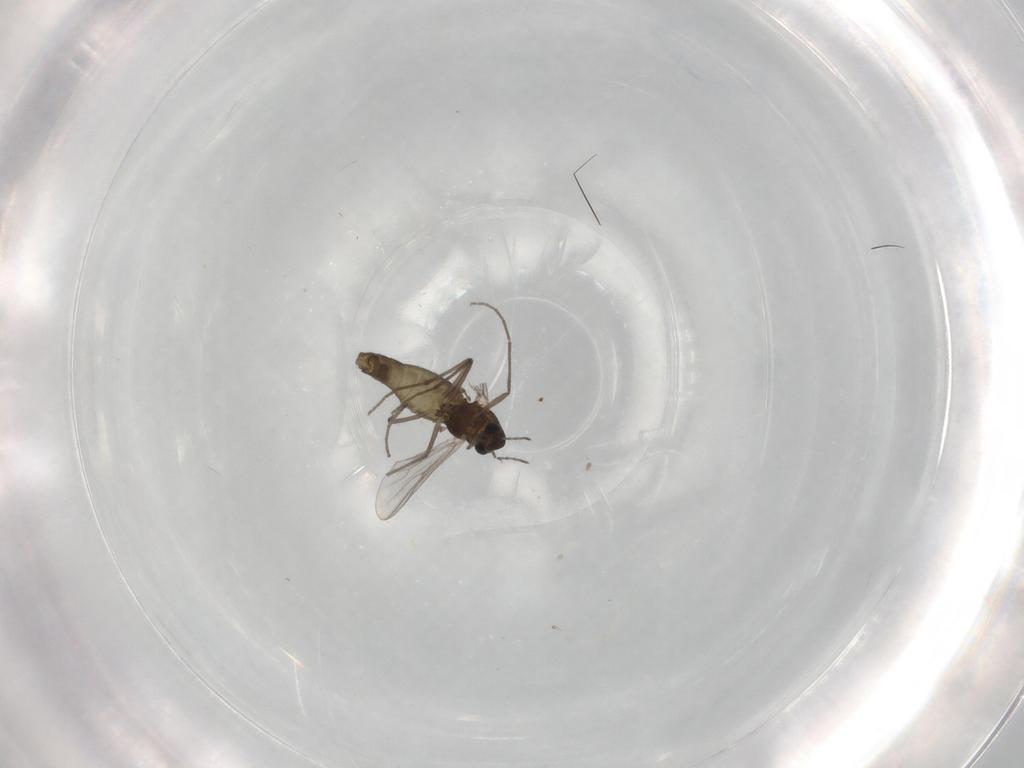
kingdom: Animalia
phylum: Arthropoda
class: Insecta
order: Diptera
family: Chironomidae
